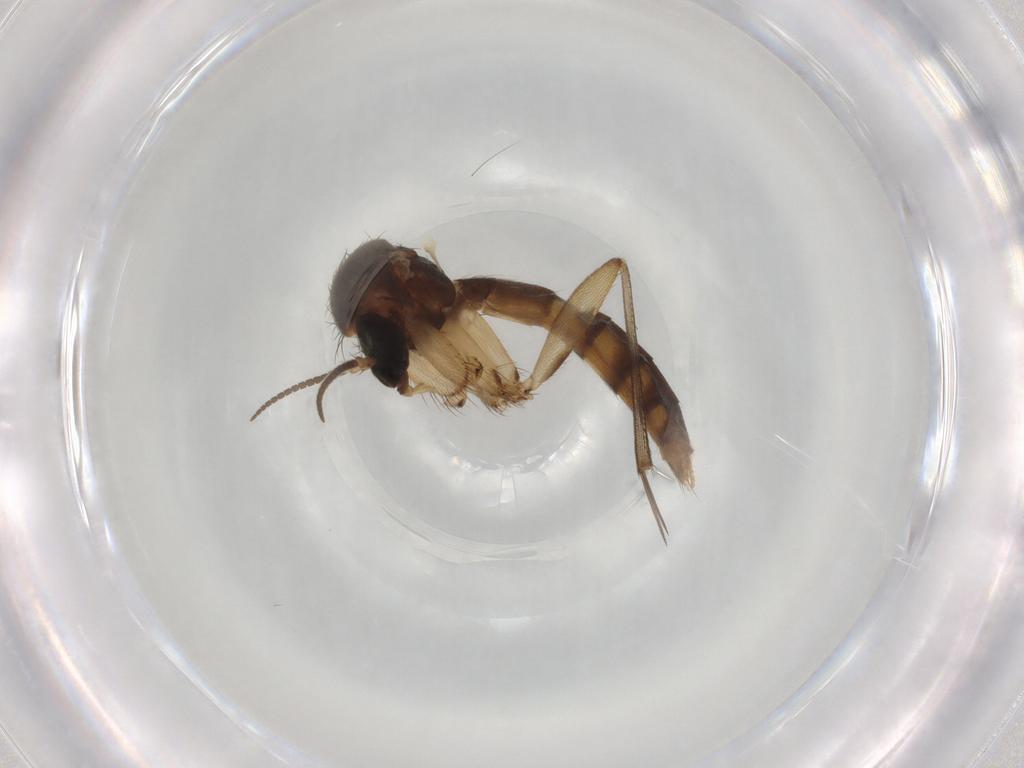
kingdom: Animalia
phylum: Arthropoda
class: Insecta
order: Diptera
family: Mycetophilidae
